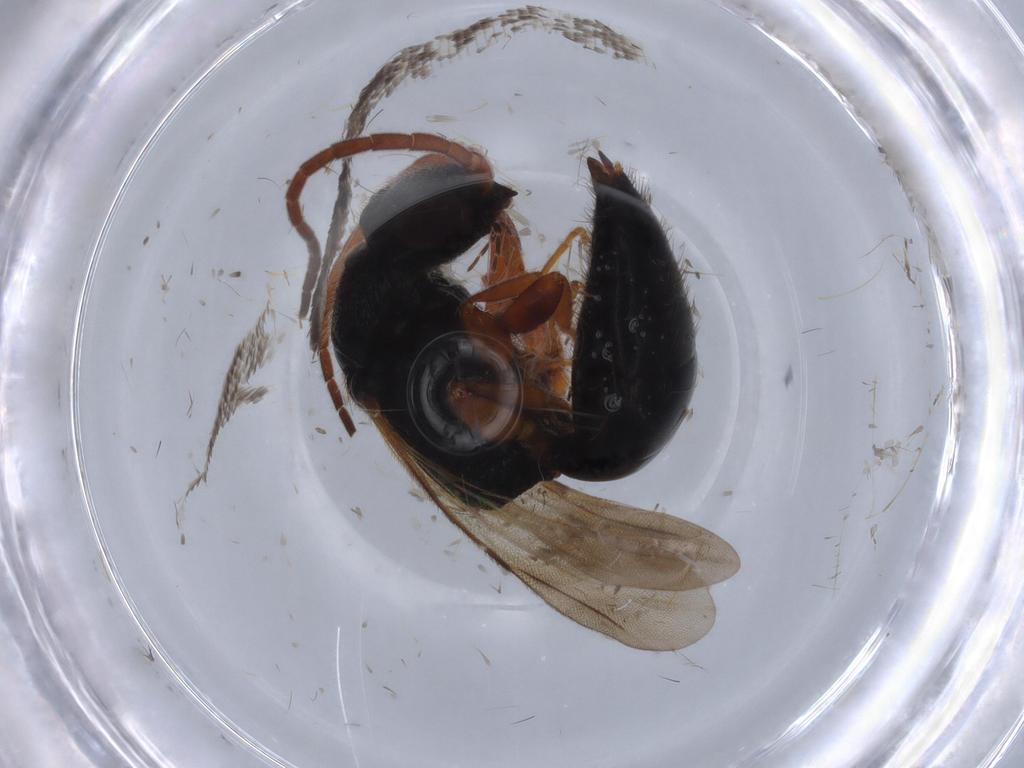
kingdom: Animalia
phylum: Arthropoda
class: Insecta
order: Hymenoptera
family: Bethylidae
